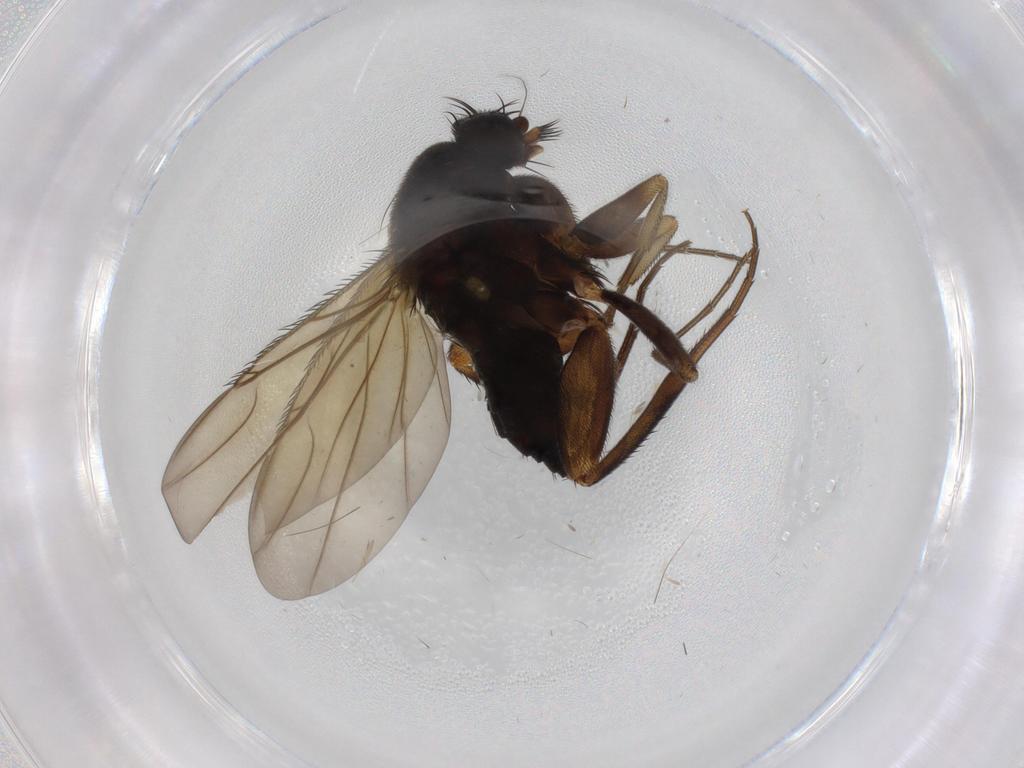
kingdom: Animalia
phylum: Arthropoda
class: Insecta
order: Diptera
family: Phoridae
